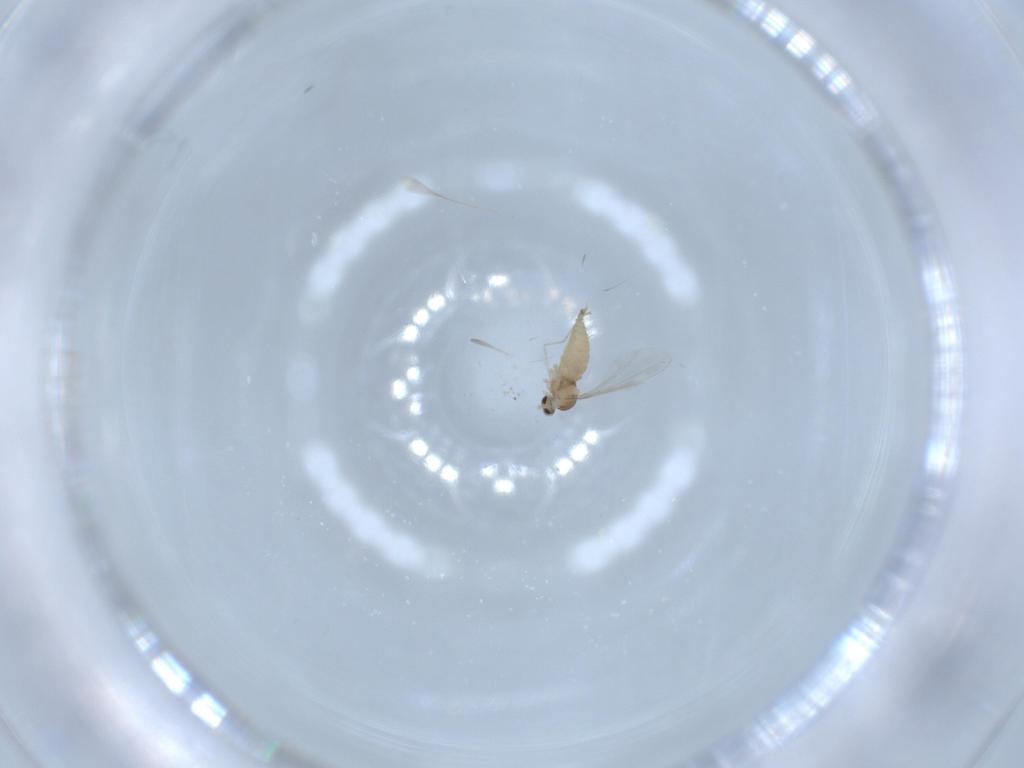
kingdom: Animalia
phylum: Arthropoda
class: Insecta
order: Diptera
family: Cecidomyiidae
